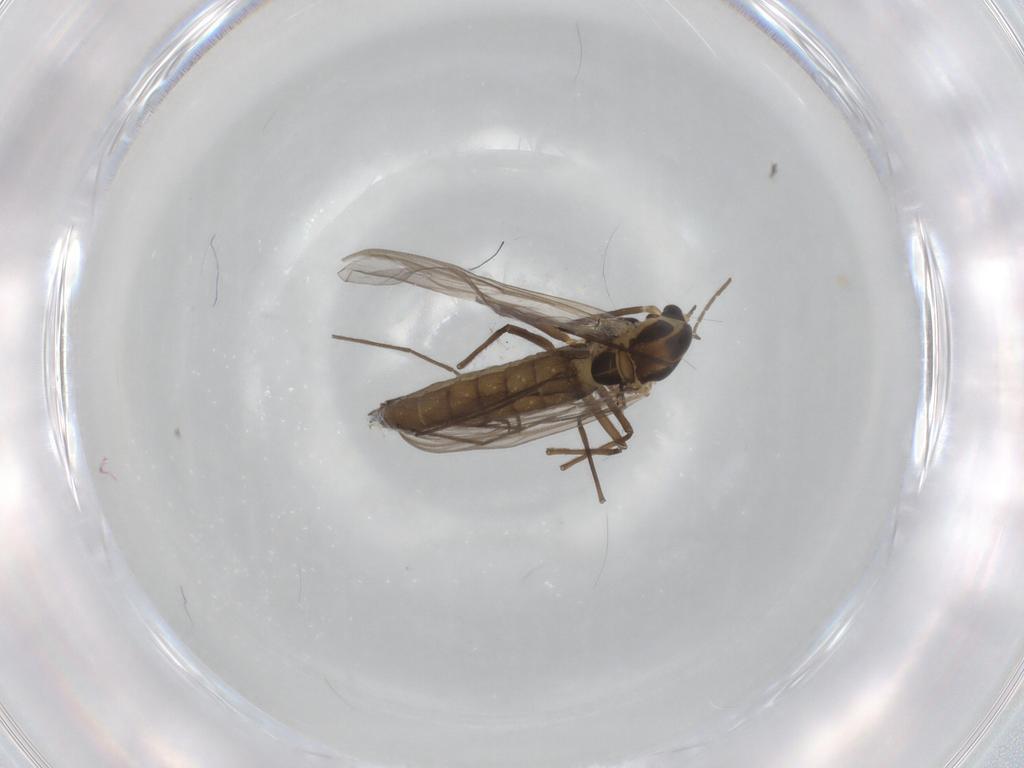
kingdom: Animalia
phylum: Arthropoda
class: Insecta
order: Diptera
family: Chironomidae
